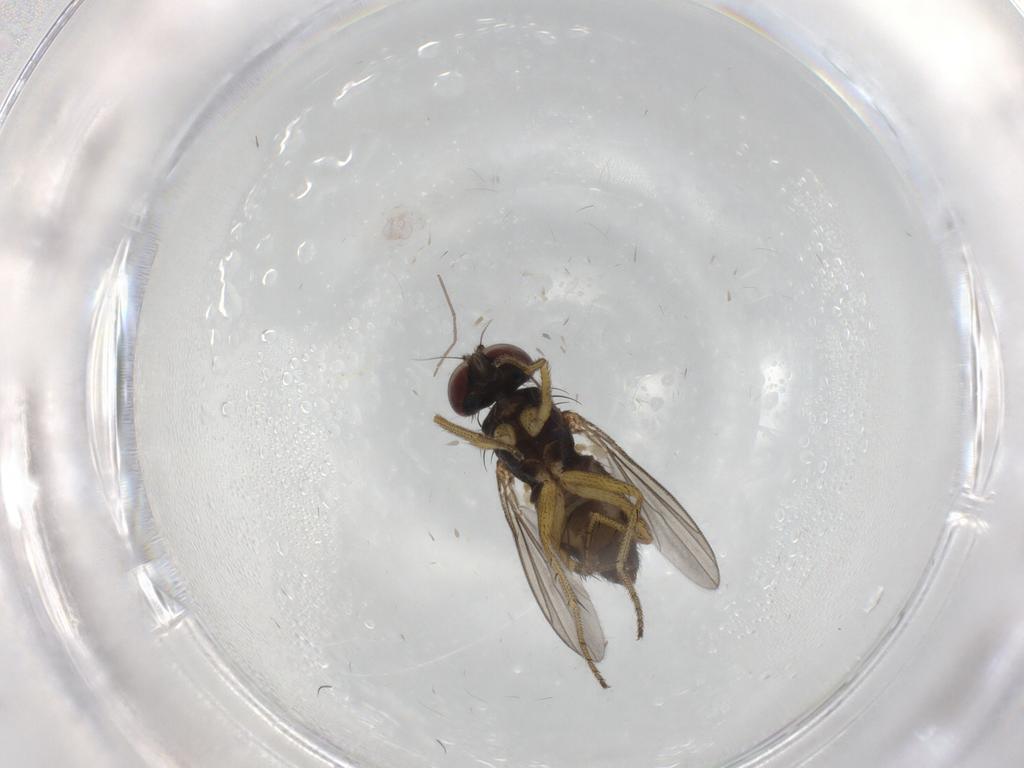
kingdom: Animalia
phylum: Arthropoda
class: Insecta
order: Diptera
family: Dolichopodidae
